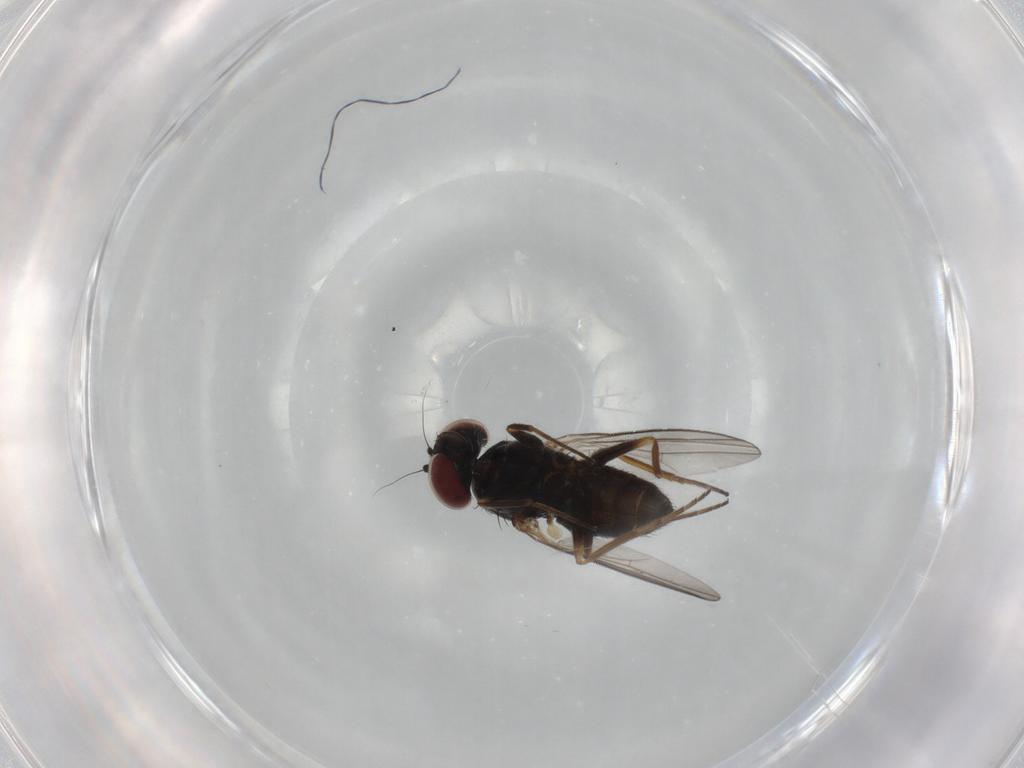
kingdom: Animalia
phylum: Arthropoda
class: Insecta
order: Diptera
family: Dolichopodidae
